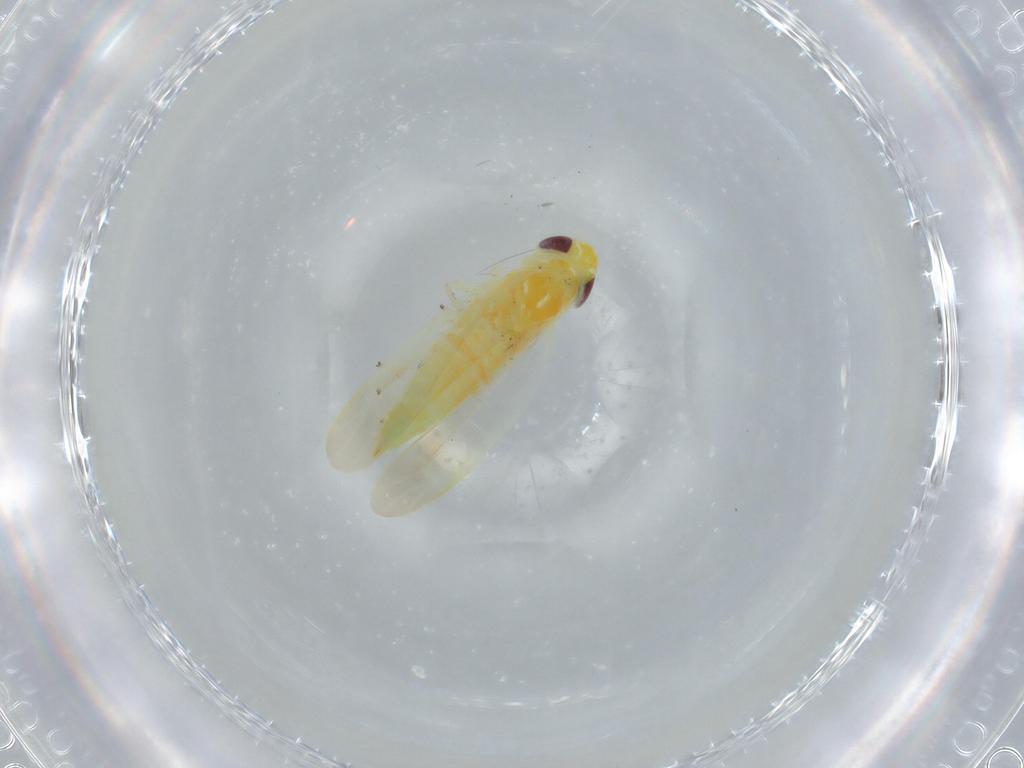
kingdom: Animalia
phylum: Arthropoda
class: Insecta
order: Hemiptera
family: Cicadellidae
